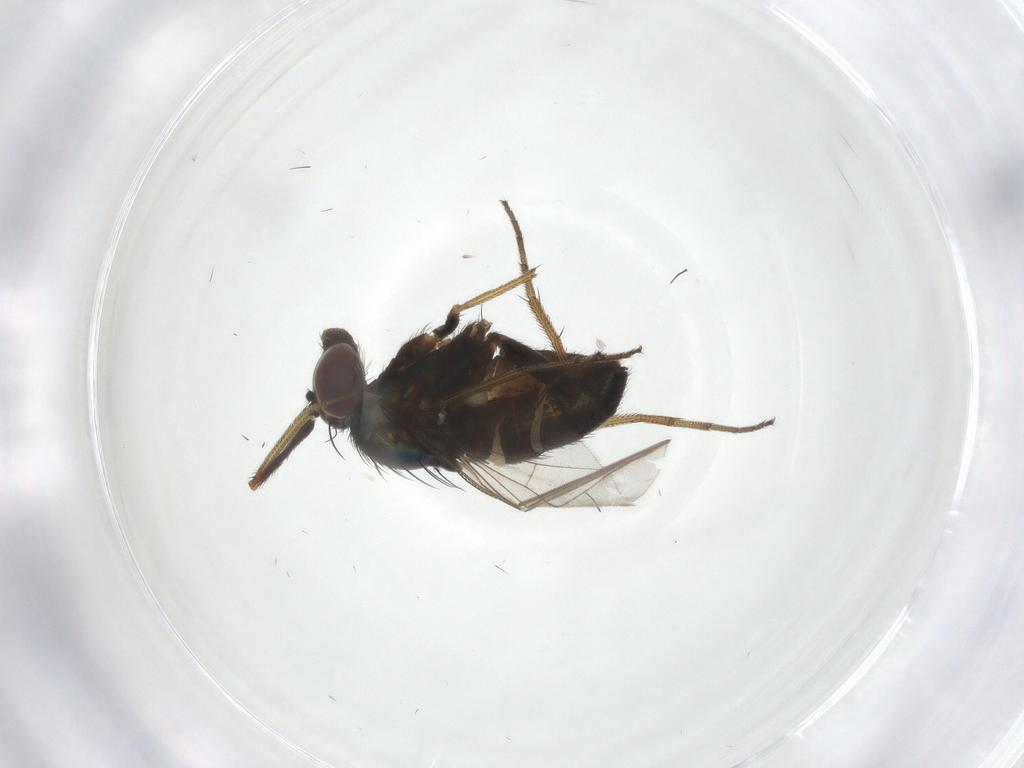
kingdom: Animalia
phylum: Arthropoda
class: Insecta
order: Diptera
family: Dolichopodidae
